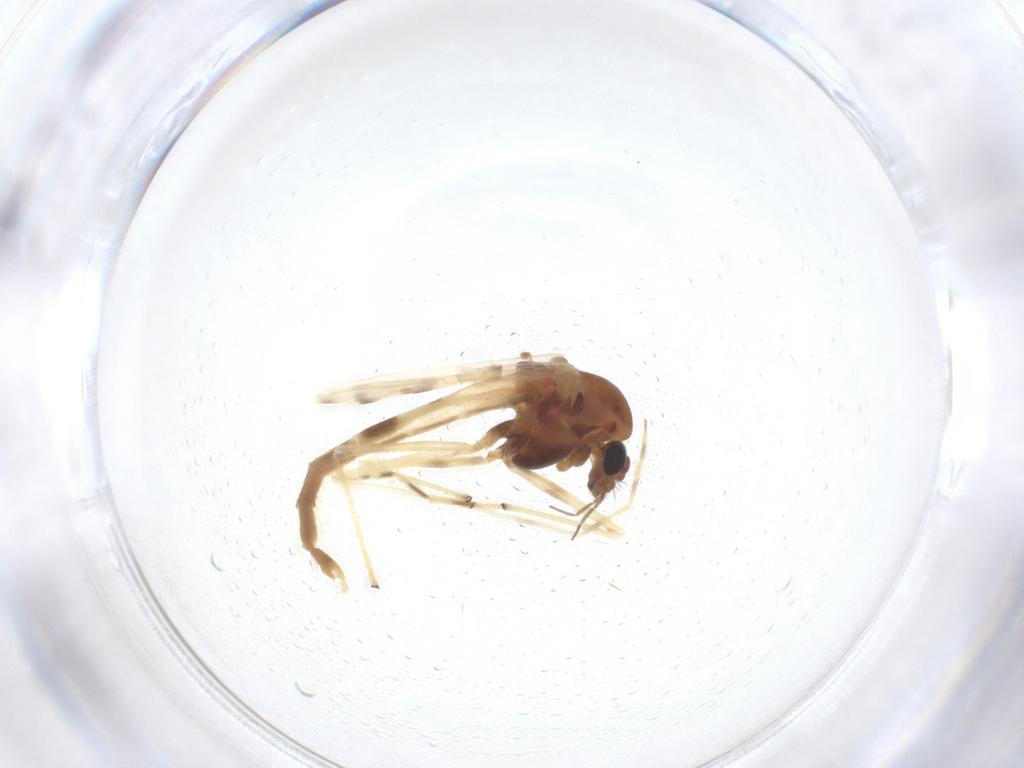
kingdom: Animalia
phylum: Arthropoda
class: Insecta
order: Diptera
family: Chironomidae
